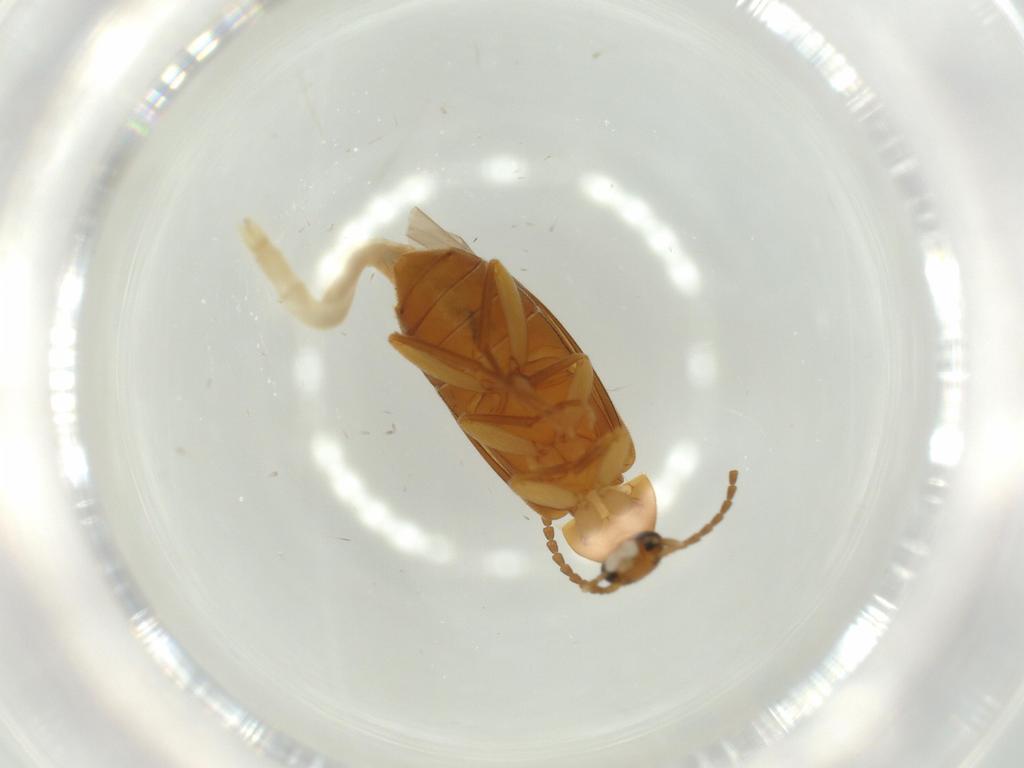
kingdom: Animalia
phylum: Arthropoda
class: Insecta
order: Coleoptera
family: Scraptiidae
